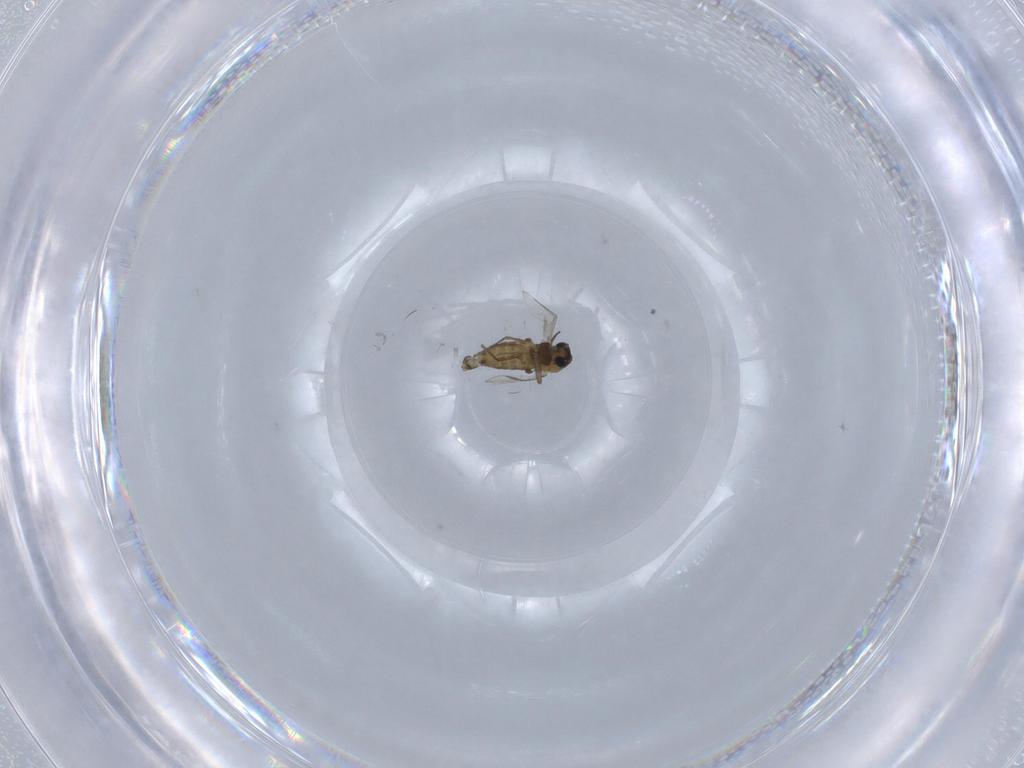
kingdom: Animalia
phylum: Arthropoda
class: Insecta
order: Diptera
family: Chironomidae
